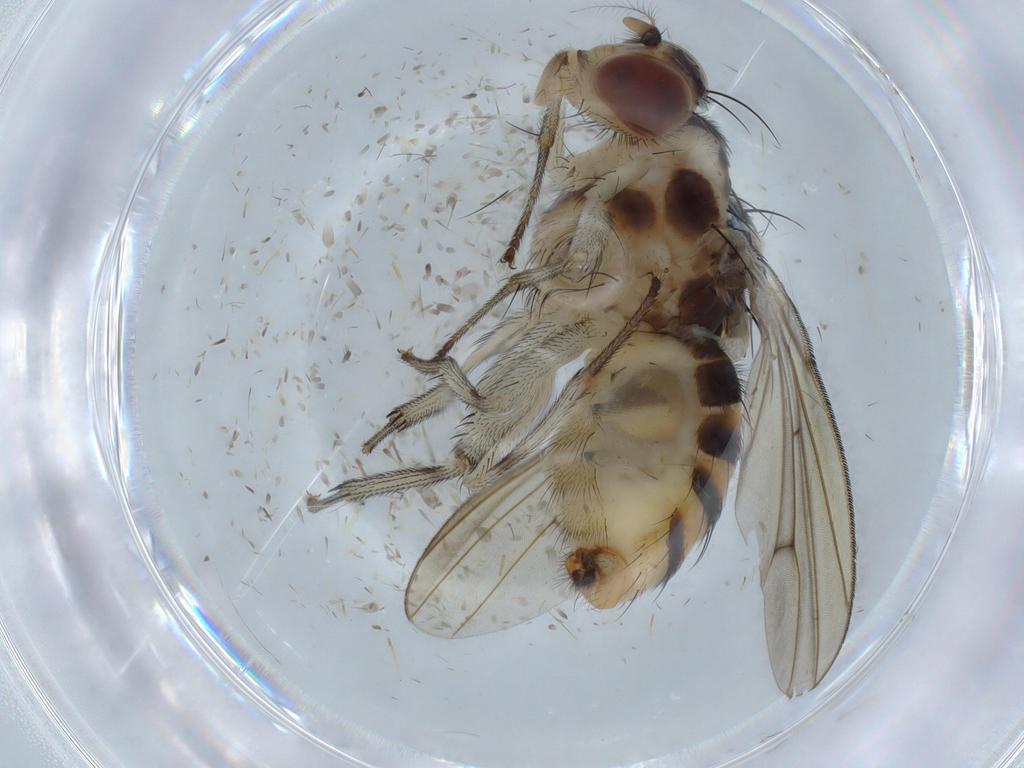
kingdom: Animalia
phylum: Arthropoda
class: Insecta
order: Diptera
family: Cecidomyiidae
